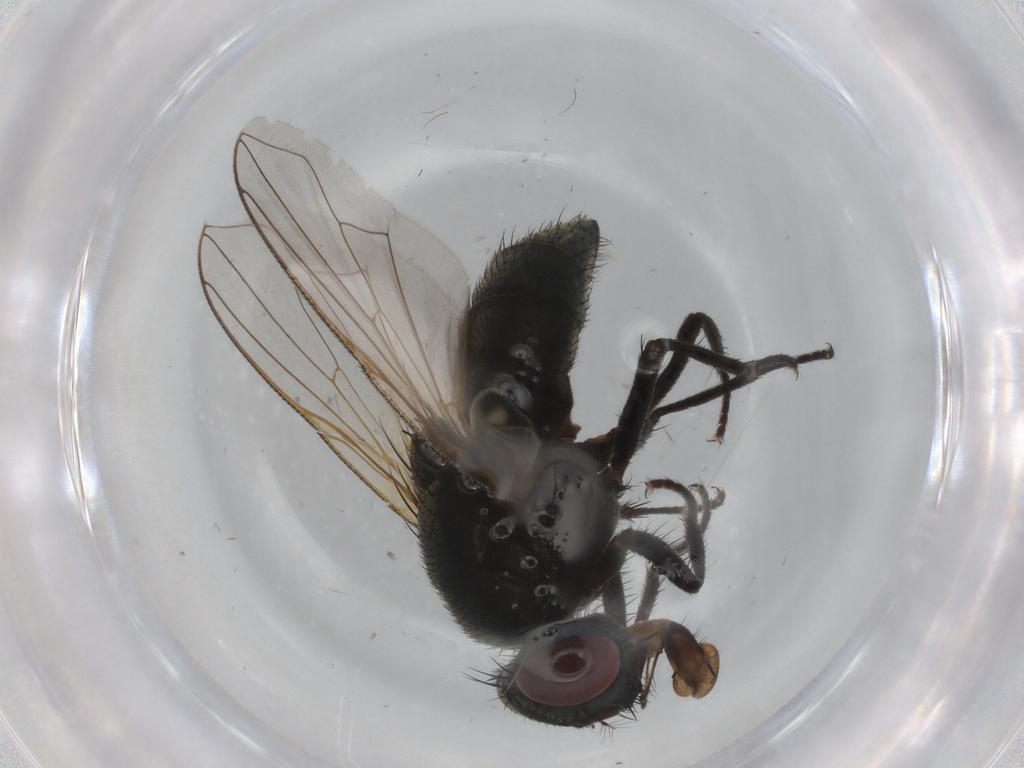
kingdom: Animalia
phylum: Arthropoda
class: Insecta
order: Diptera
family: Muscidae
